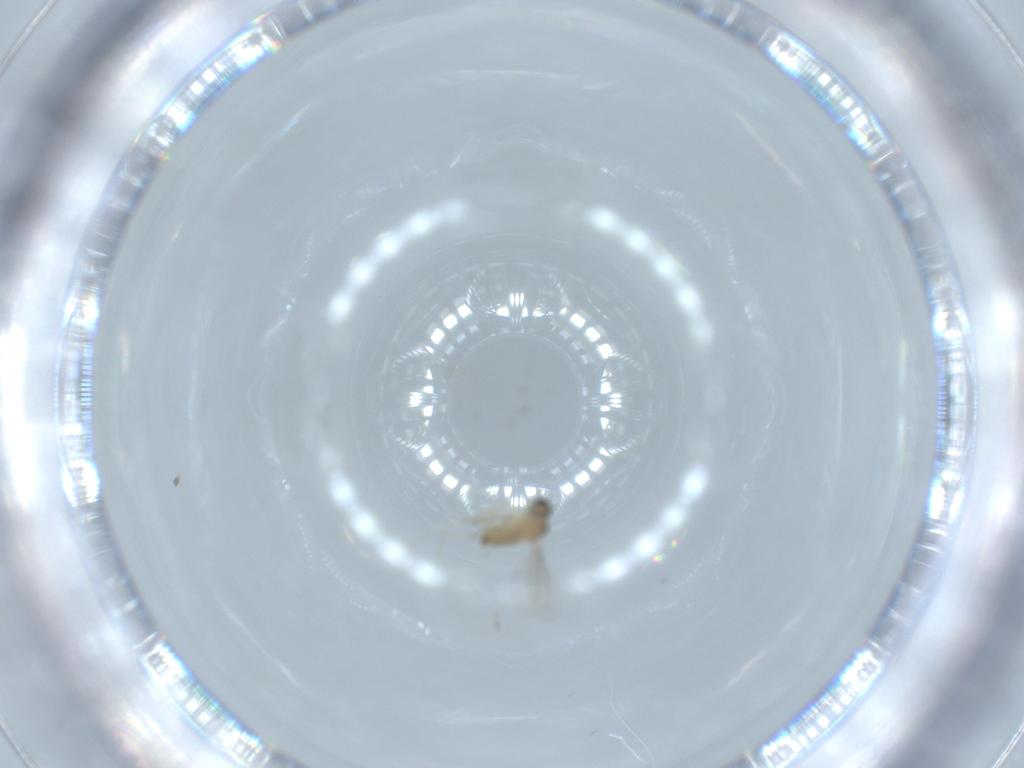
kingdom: Animalia
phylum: Arthropoda
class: Insecta
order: Diptera
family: Cecidomyiidae
